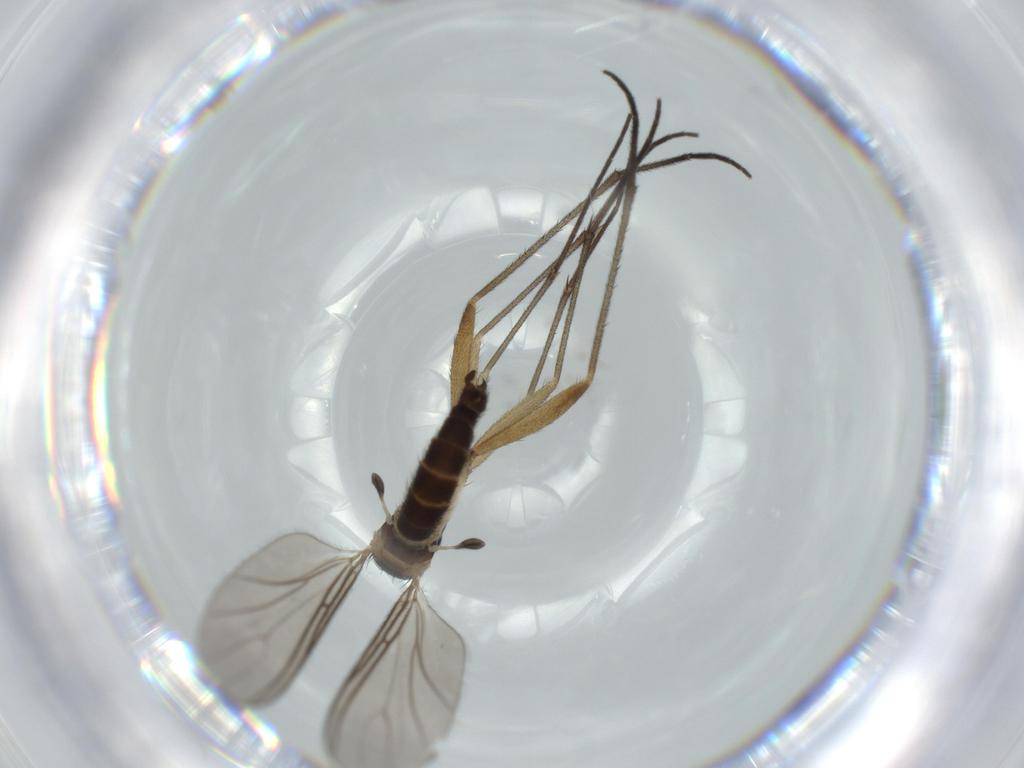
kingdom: Animalia
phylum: Arthropoda
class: Insecta
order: Diptera
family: Sciaridae
